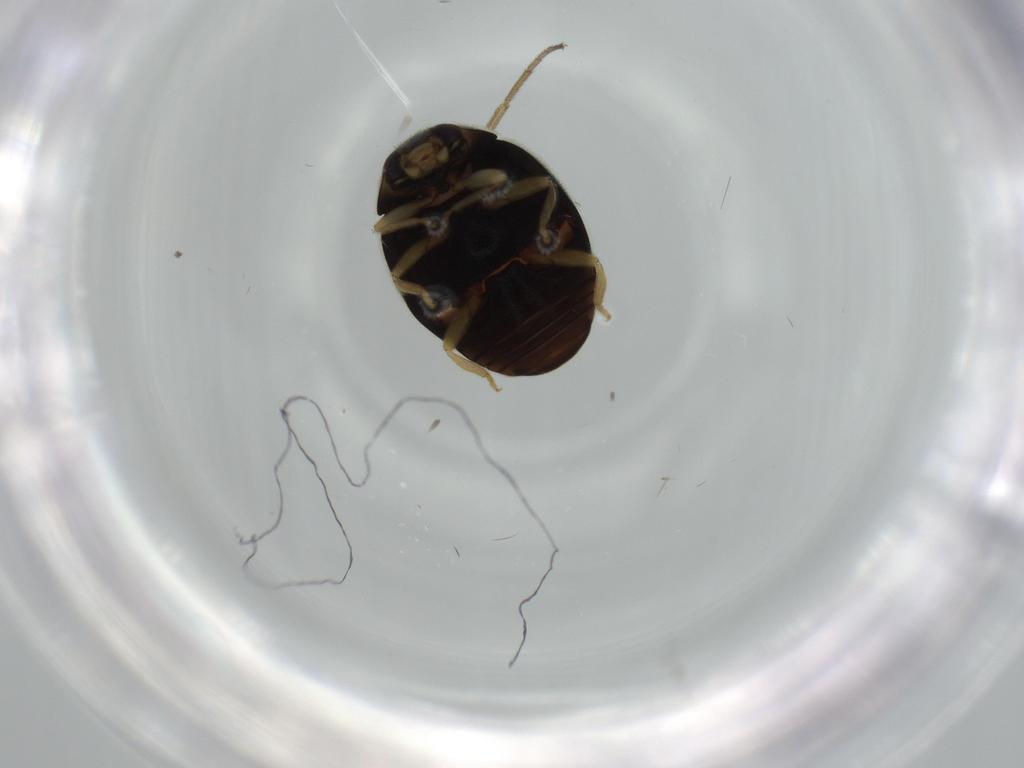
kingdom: Animalia
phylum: Arthropoda
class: Insecta
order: Coleoptera
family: Coccinellidae
